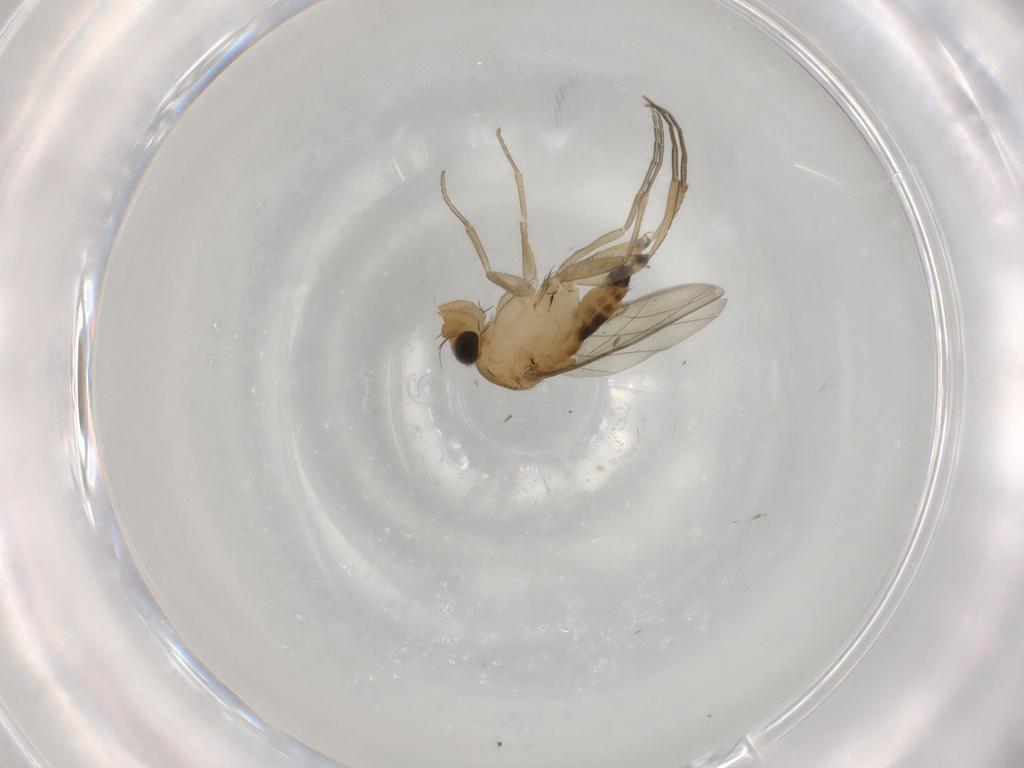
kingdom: Animalia
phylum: Arthropoda
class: Insecta
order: Diptera
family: Phoridae
